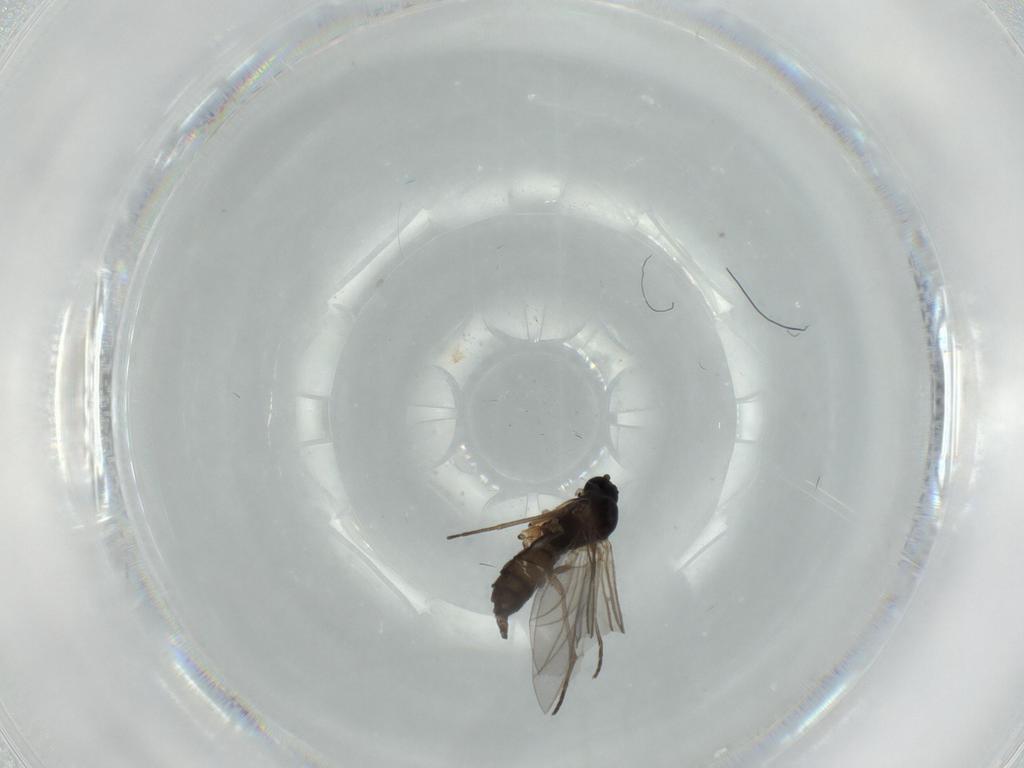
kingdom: Animalia
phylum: Arthropoda
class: Insecta
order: Diptera
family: Sciaridae
